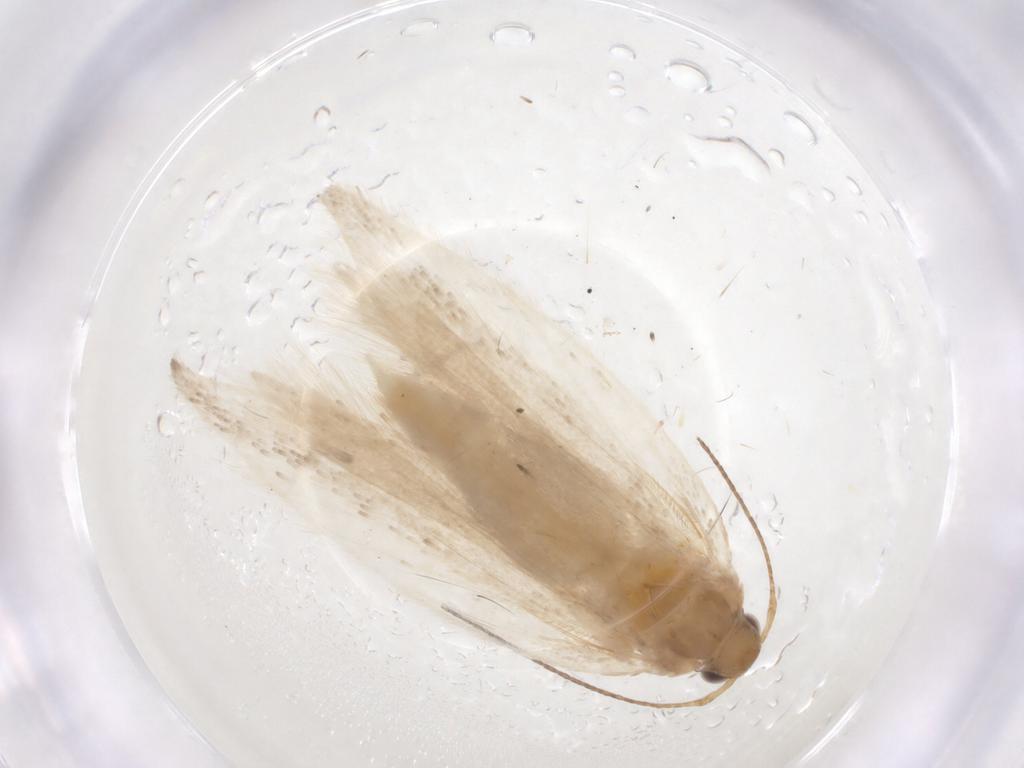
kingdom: Animalia
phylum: Arthropoda
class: Insecta
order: Lepidoptera
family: Gelechiidae
